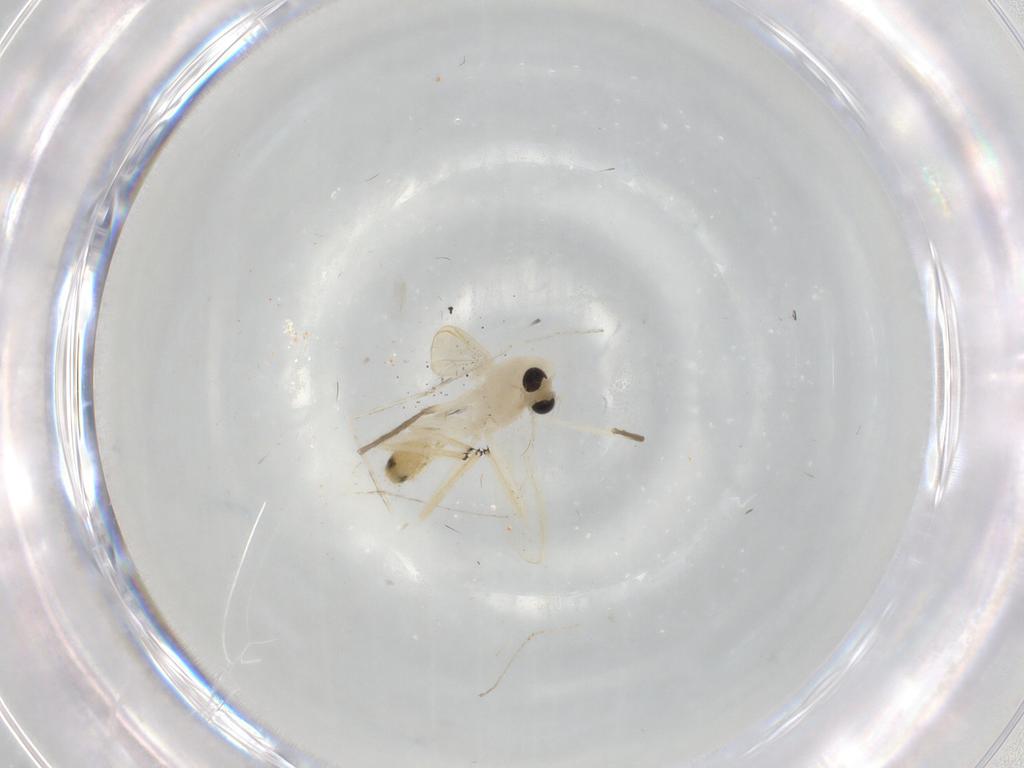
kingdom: Animalia
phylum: Arthropoda
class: Insecta
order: Diptera
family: Cecidomyiidae
